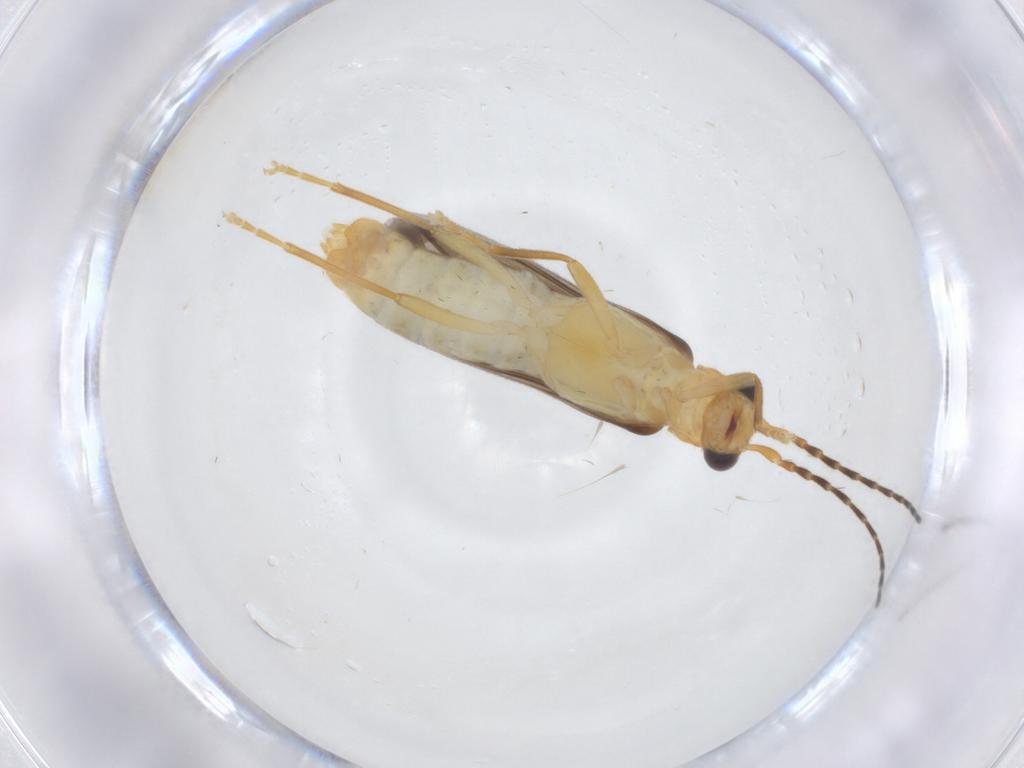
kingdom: Animalia
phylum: Arthropoda
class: Insecta
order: Coleoptera
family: Cantharidae
